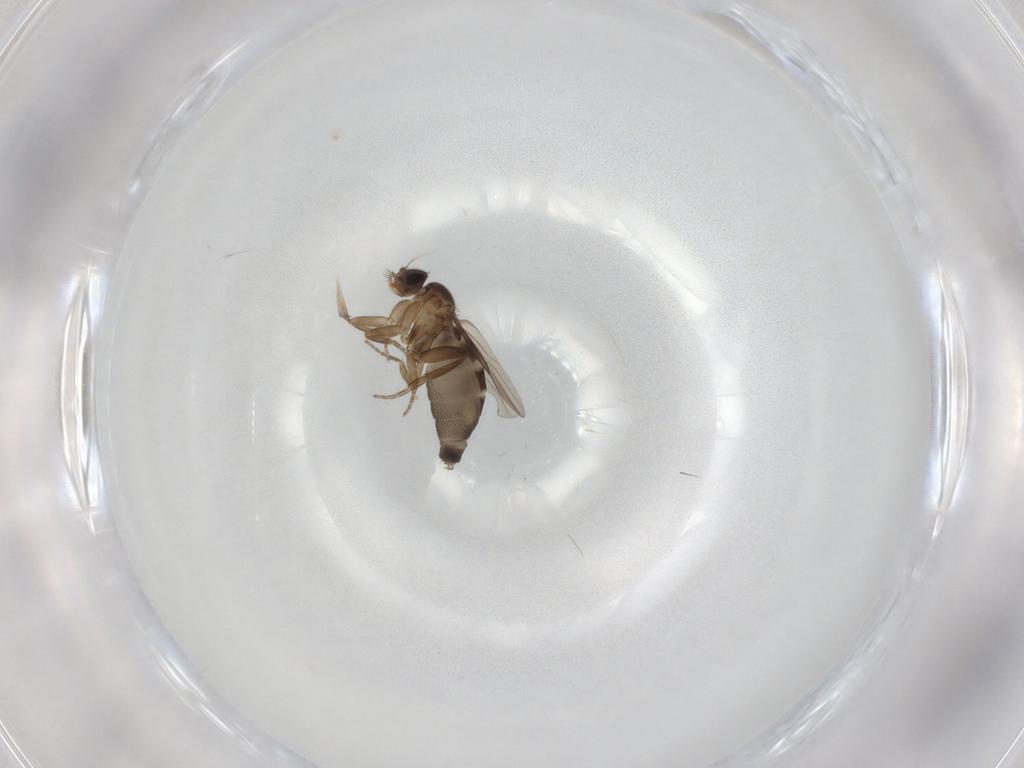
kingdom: Animalia
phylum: Arthropoda
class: Insecta
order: Diptera
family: Phoridae
